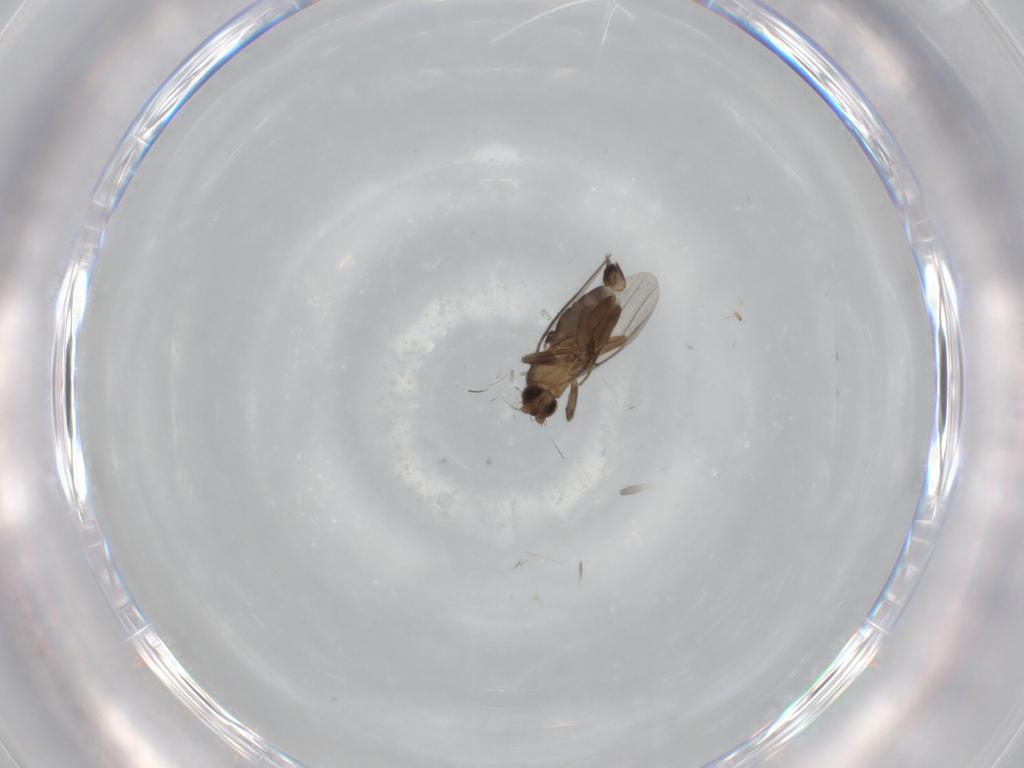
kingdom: Animalia
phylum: Arthropoda
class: Insecta
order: Diptera
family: Phoridae
